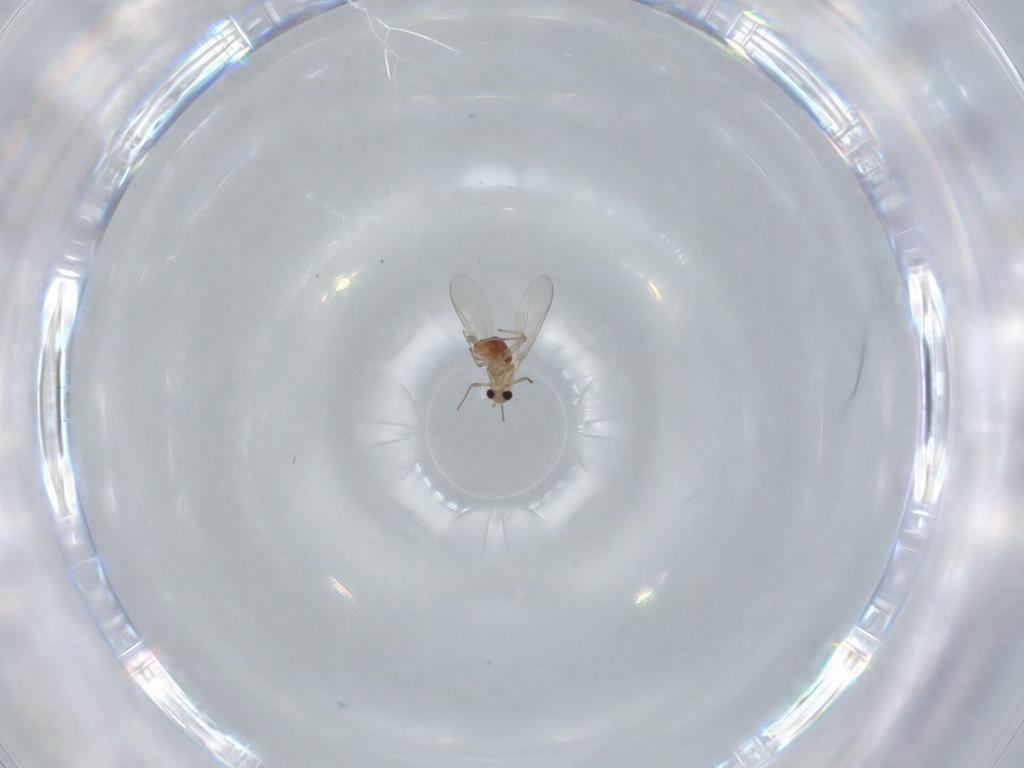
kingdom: Animalia
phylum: Arthropoda
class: Insecta
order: Diptera
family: Chironomidae
